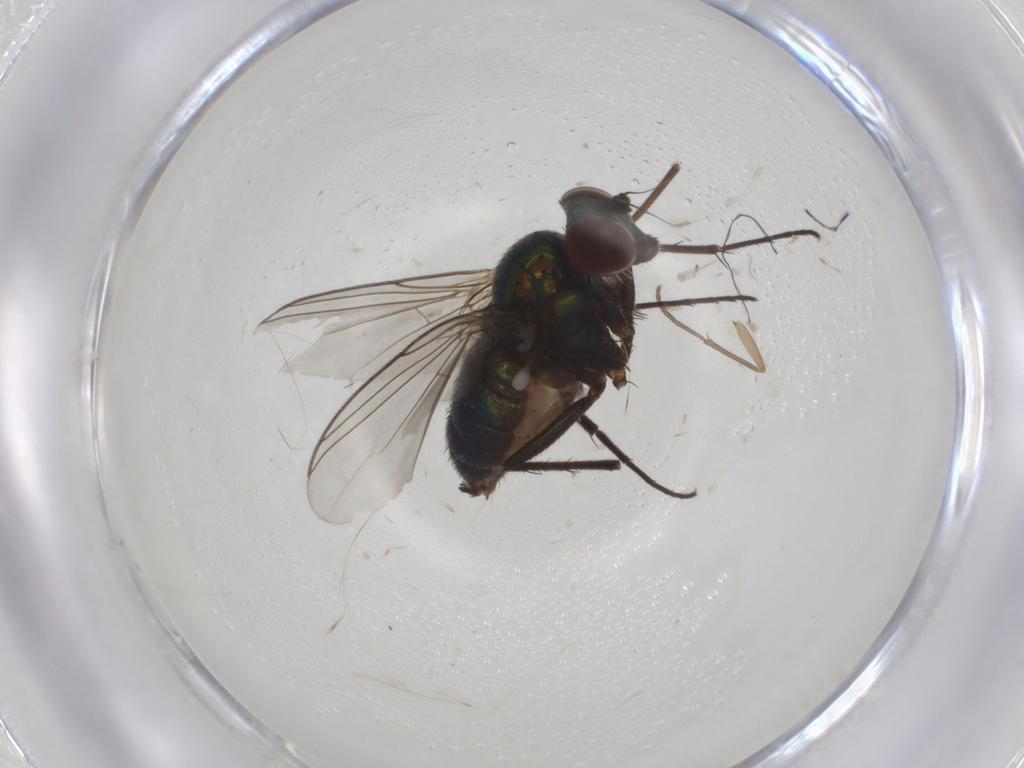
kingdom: Animalia
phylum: Arthropoda
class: Insecta
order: Diptera
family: Dolichopodidae
